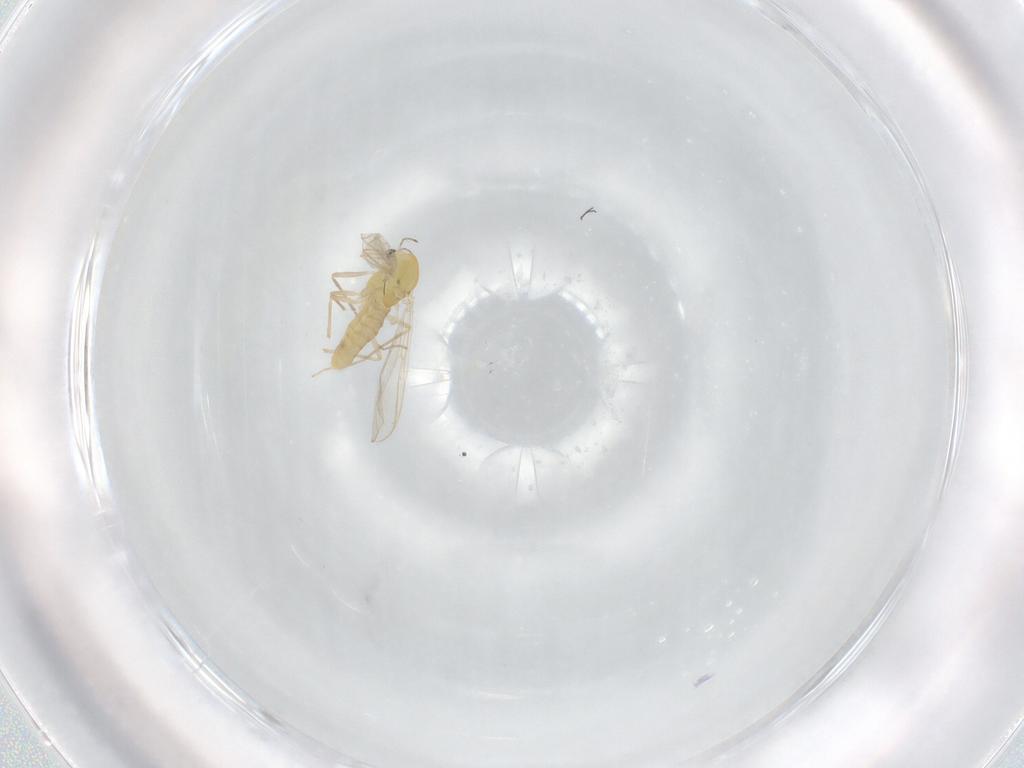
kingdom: Animalia
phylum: Arthropoda
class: Insecta
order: Diptera
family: Chironomidae
